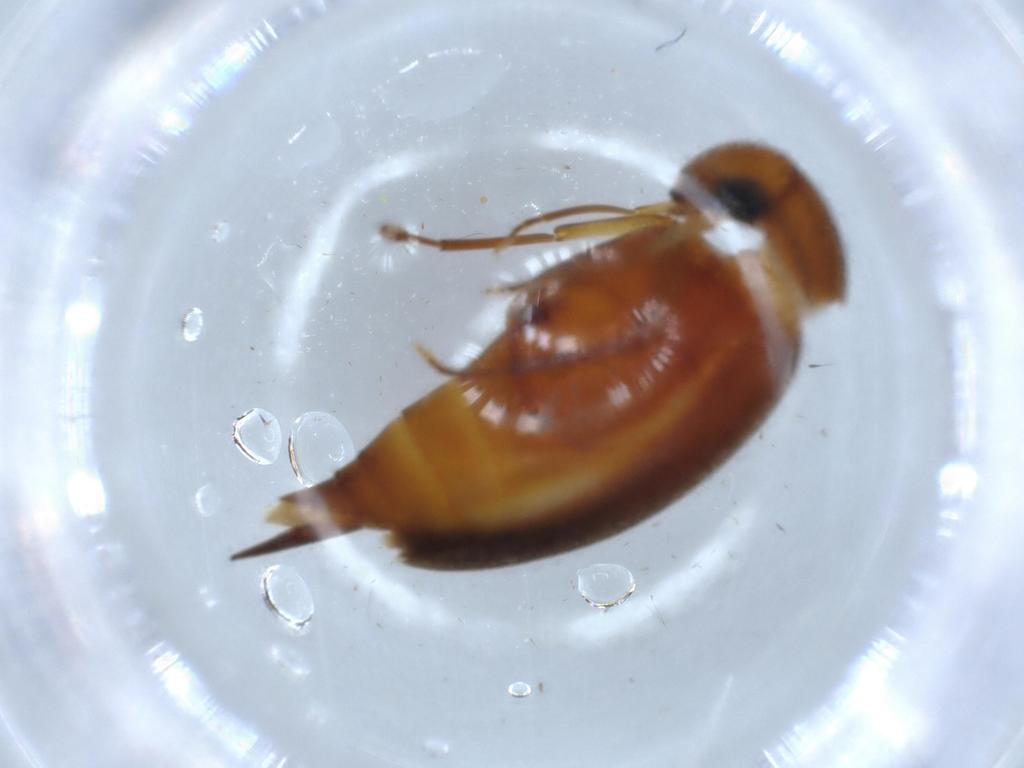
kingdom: Animalia
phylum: Arthropoda
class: Insecta
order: Coleoptera
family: Mordellidae
